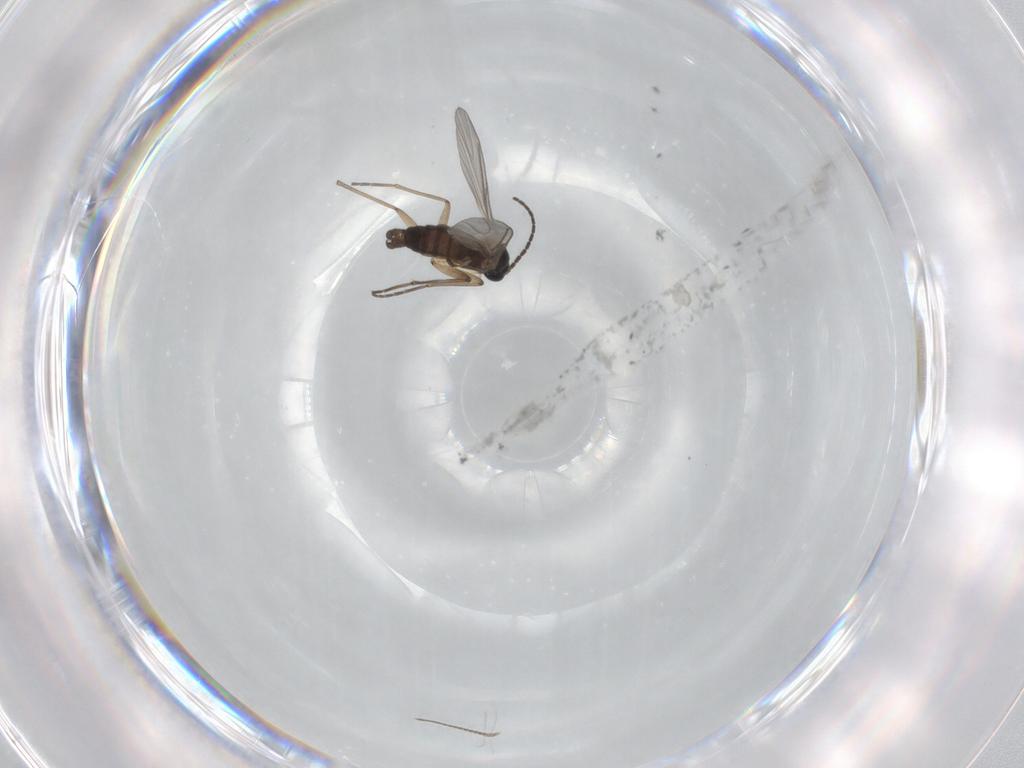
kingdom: Animalia
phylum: Arthropoda
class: Insecta
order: Diptera
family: Sciaridae
